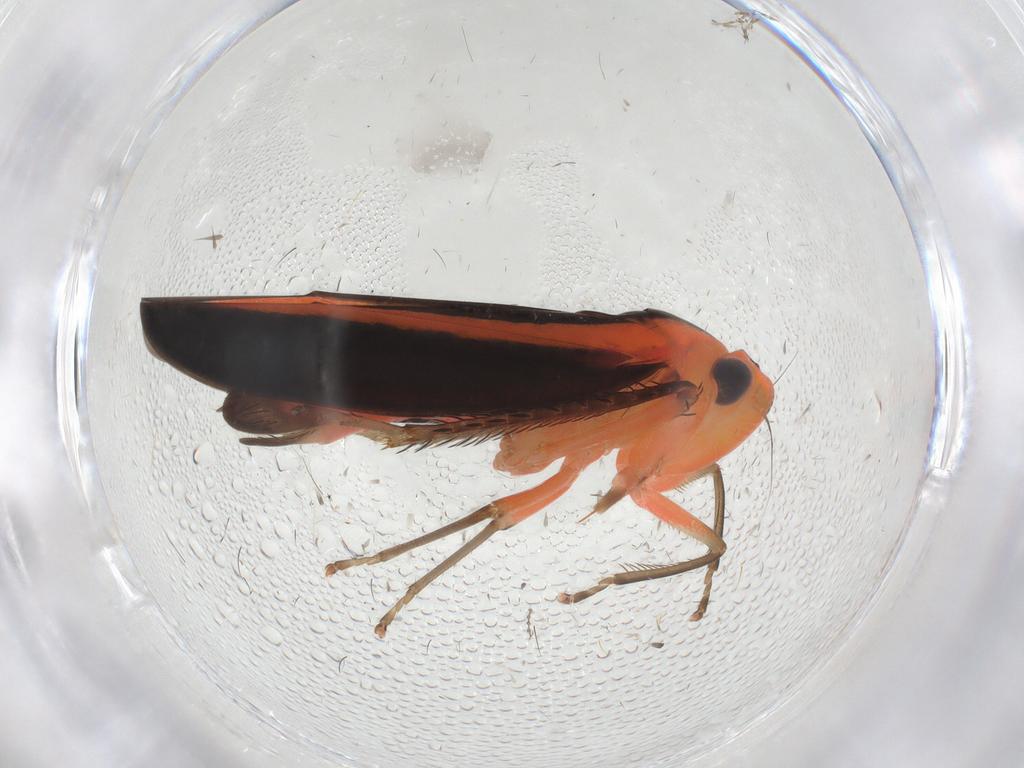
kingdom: Animalia
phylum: Arthropoda
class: Insecta
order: Hemiptera
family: Cicadellidae
